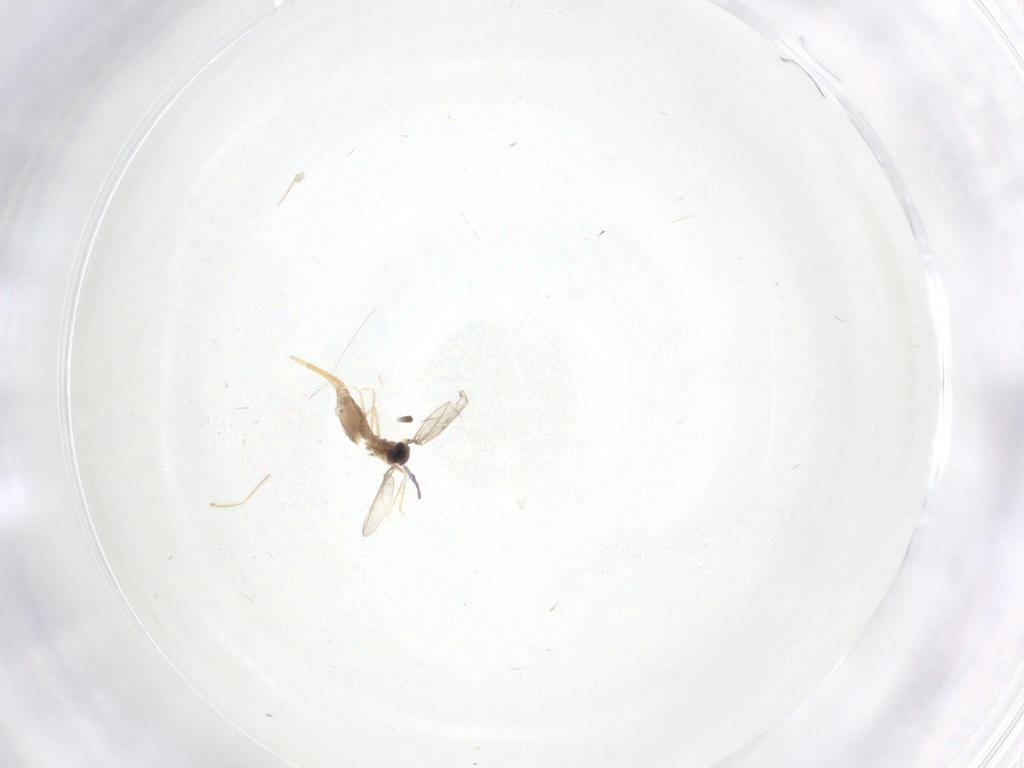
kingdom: Animalia
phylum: Arthropoda
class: Insecta
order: Diptera
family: Cecidomyiidae
